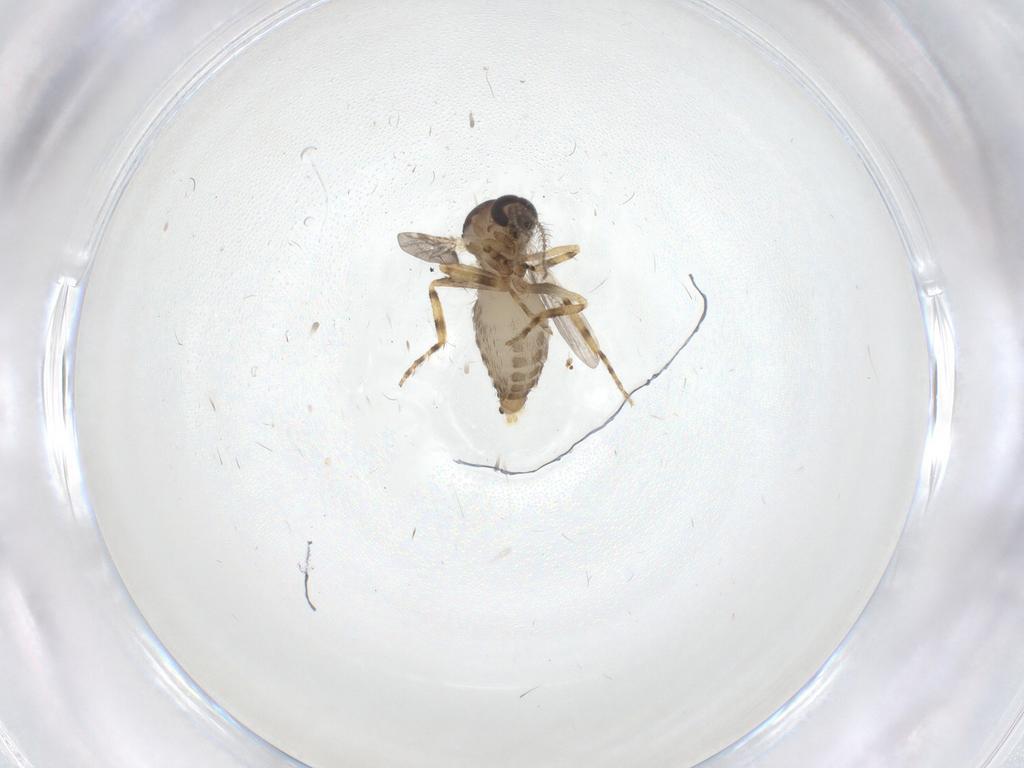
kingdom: Animalia
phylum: Arthropoda
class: Insecta
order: Diptera
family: Ceratopogonidae
